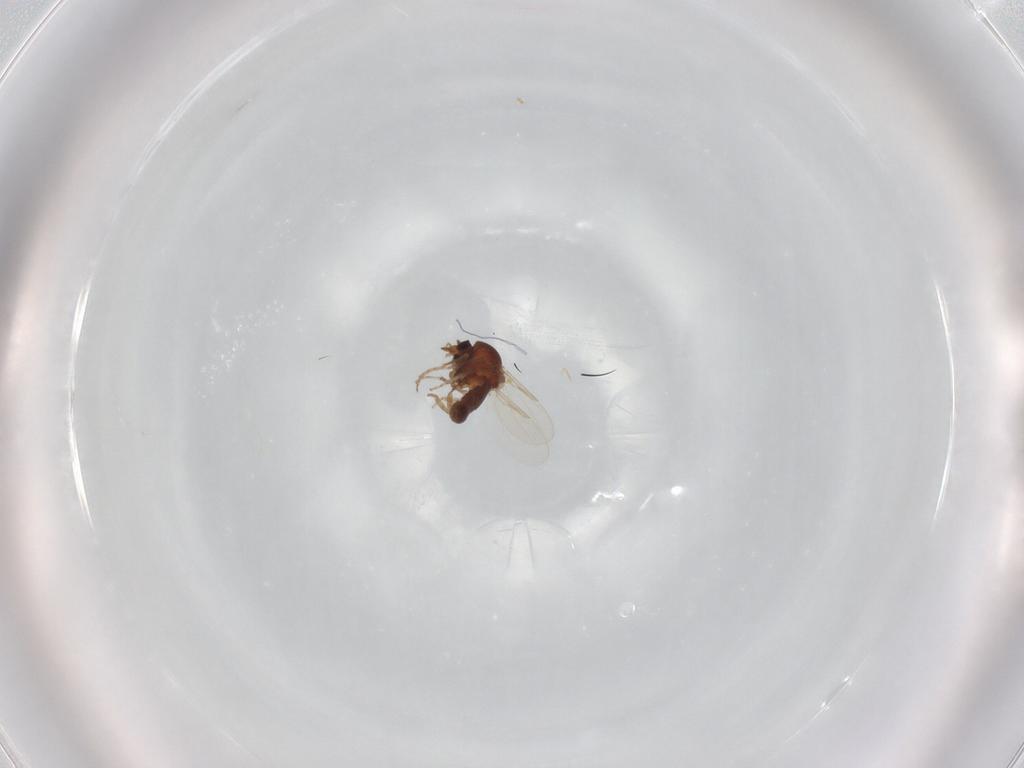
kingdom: Animalia
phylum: Arthropoda
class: Insecta
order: Diptera
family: Ceratopogonidae
